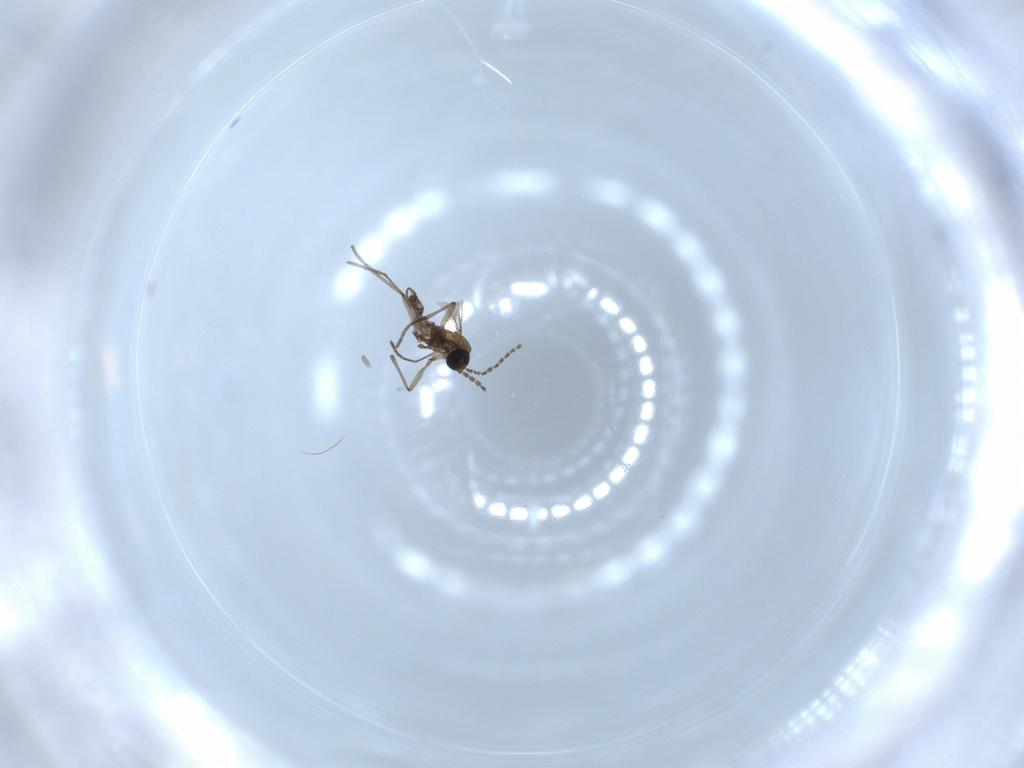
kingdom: Animalia
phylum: Arthropoda
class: Insecta
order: Diptera
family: Sciaridae
